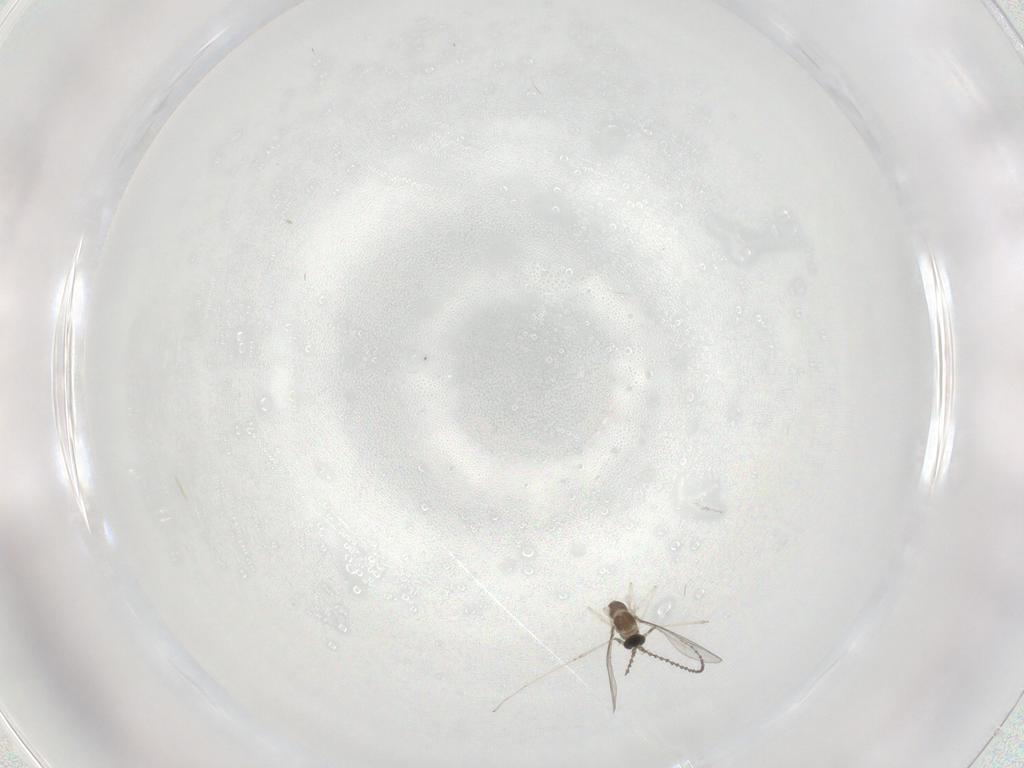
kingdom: Animalia
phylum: Arthropoda
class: Insecta
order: Diptera
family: Cecidomyiidae
